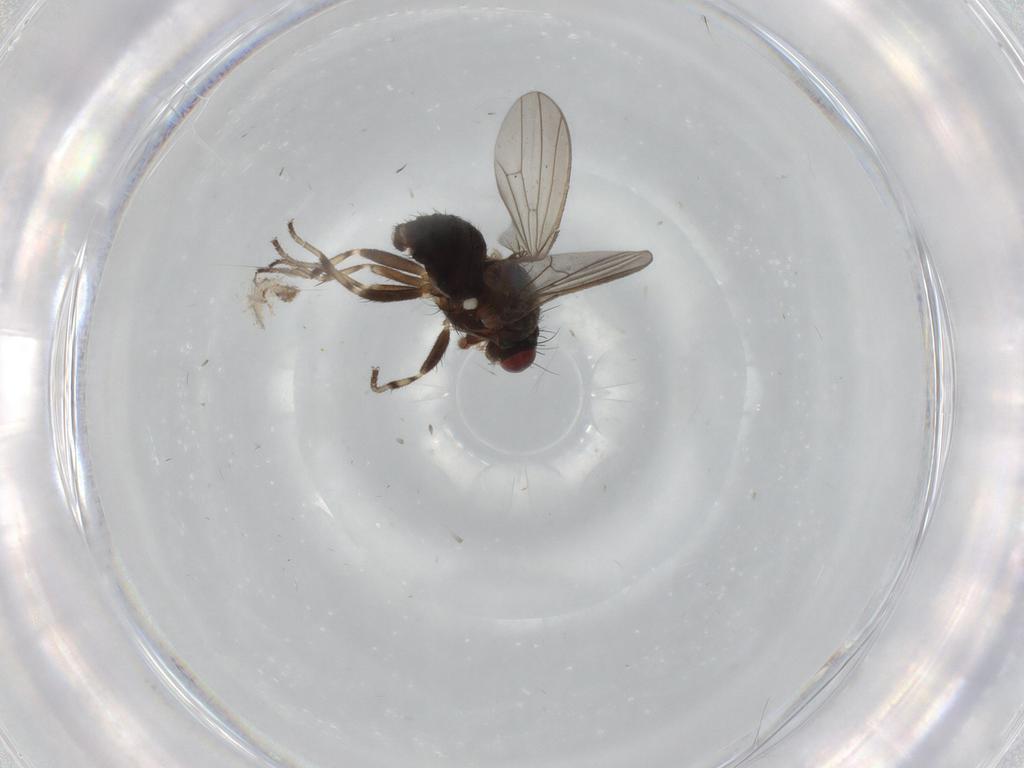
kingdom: Animalia
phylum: Arthropoda
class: Insecta
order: Diptera
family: Heleomyzidae
